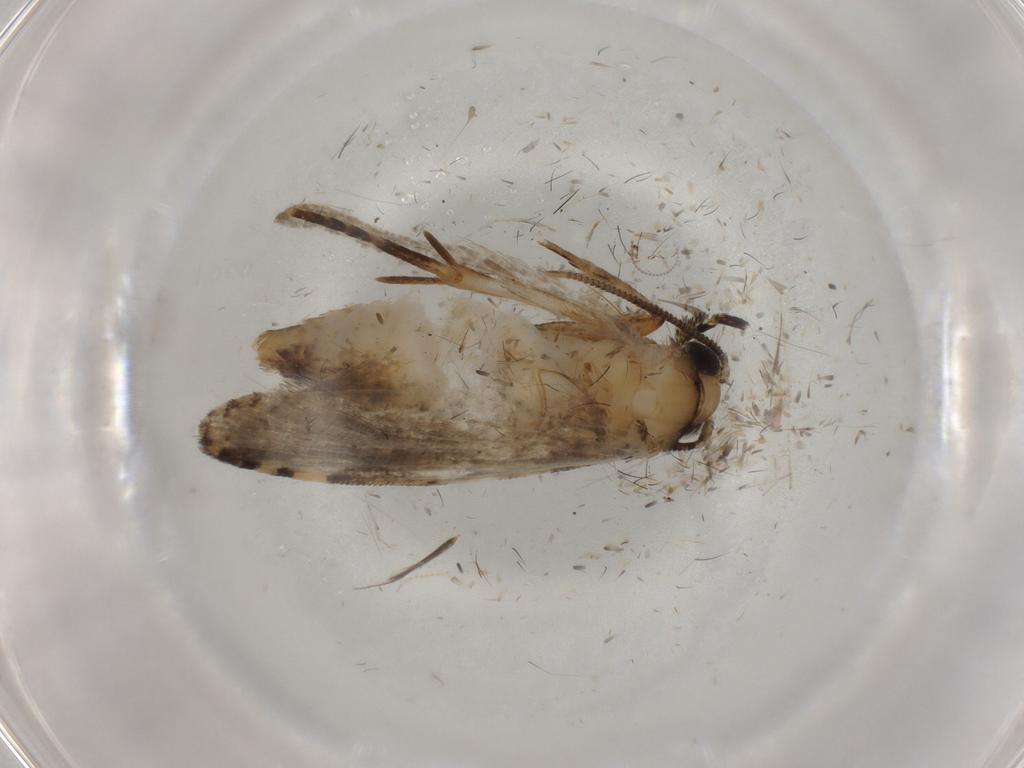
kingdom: Animalia
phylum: Arthropoda
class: Insecta
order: Lepidoptera
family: Tineidae
